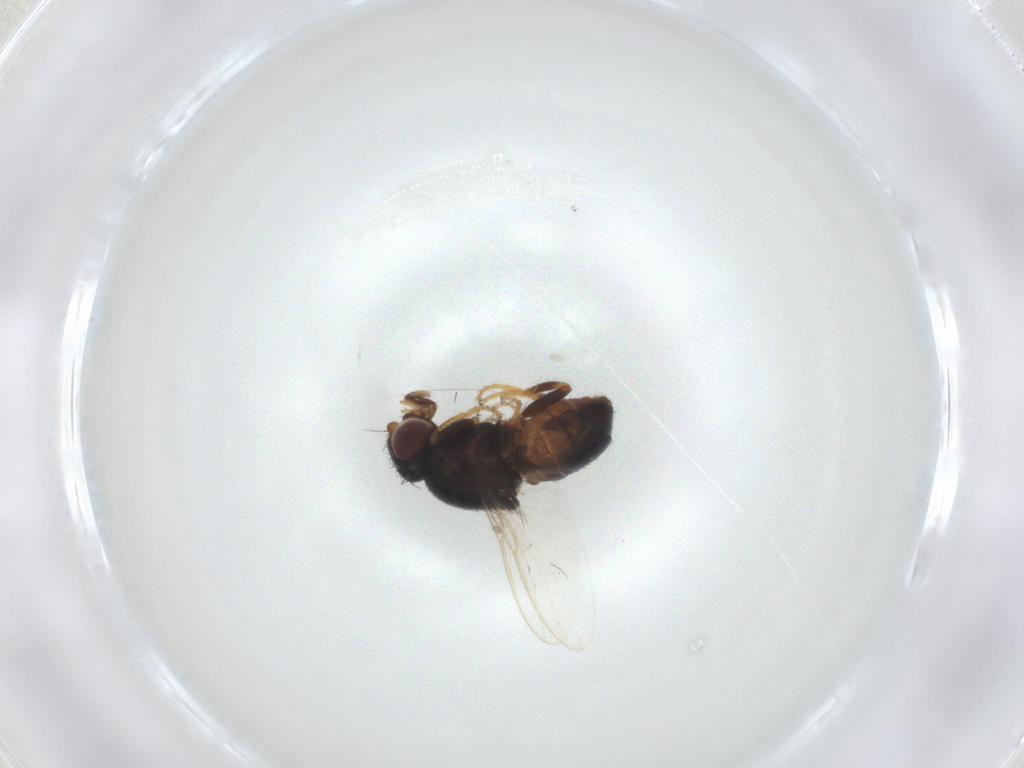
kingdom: Animalia
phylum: Arthropoda
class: Insecta
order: Diptera
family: Chloropidae
